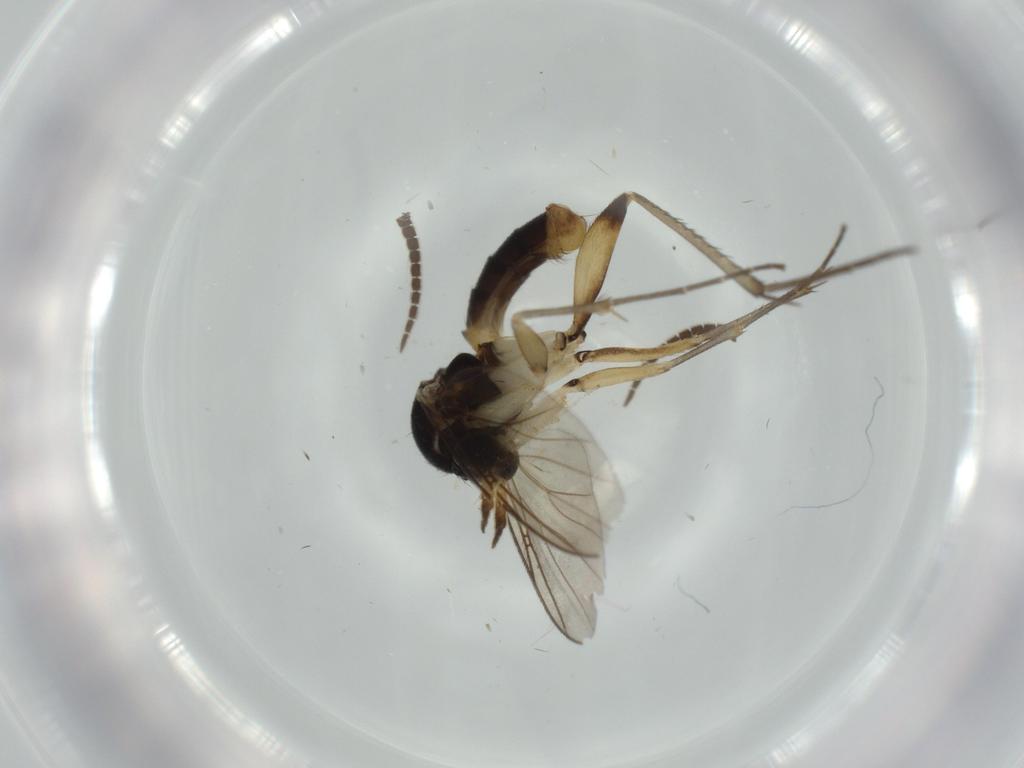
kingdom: Animalia
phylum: Arthropoda
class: Insecta
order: Diptera
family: Sciaridae
